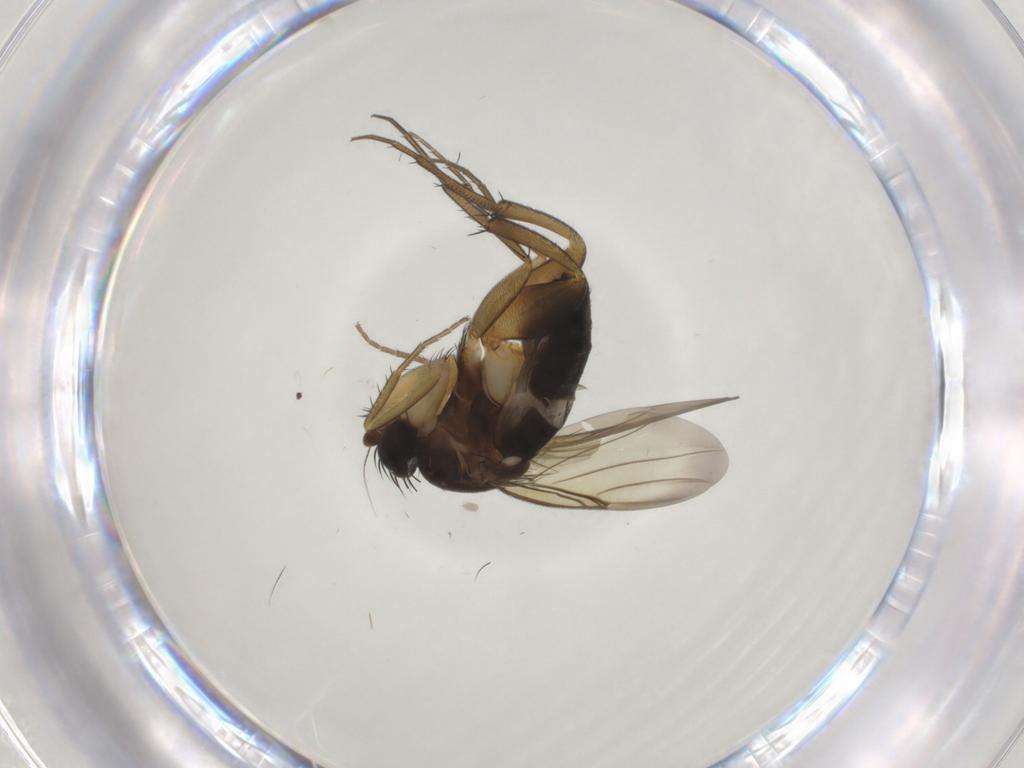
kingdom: Animalia
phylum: Arthropoda
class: Insecta
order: Diptera
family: Phoridae
